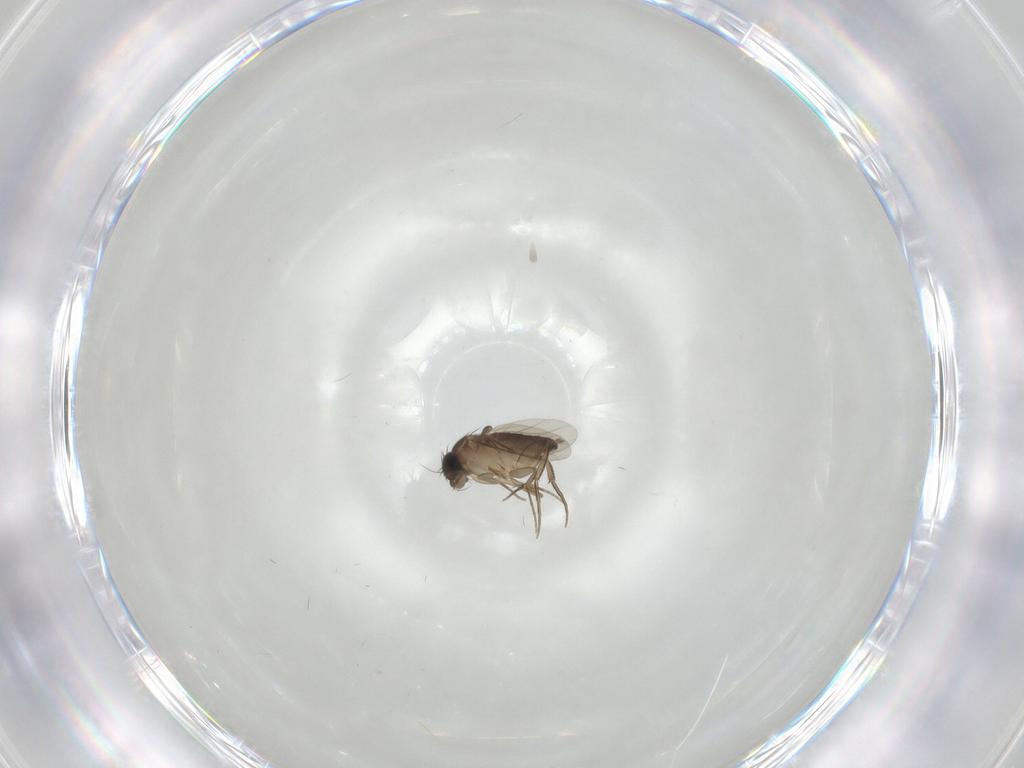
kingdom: Animalia
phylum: Arthropoda
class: Insecta
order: Diptera
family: Phoridae
